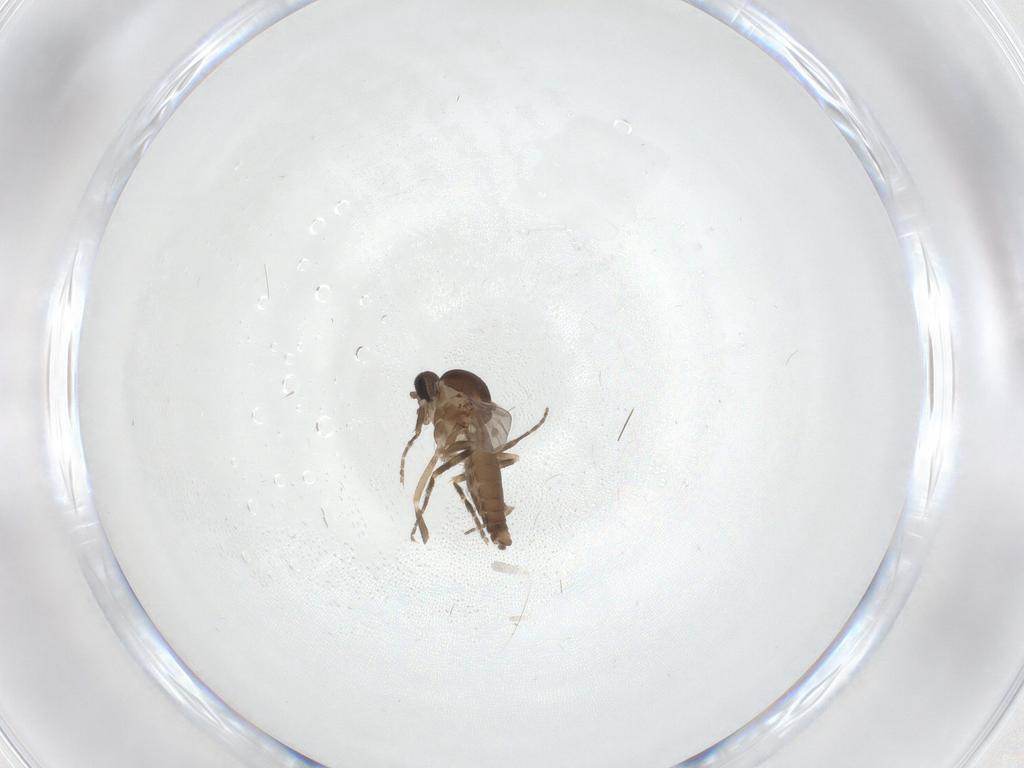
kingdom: Animalia
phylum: Arthropoda
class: Insecta
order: Diptera
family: Ceratopogonidae
